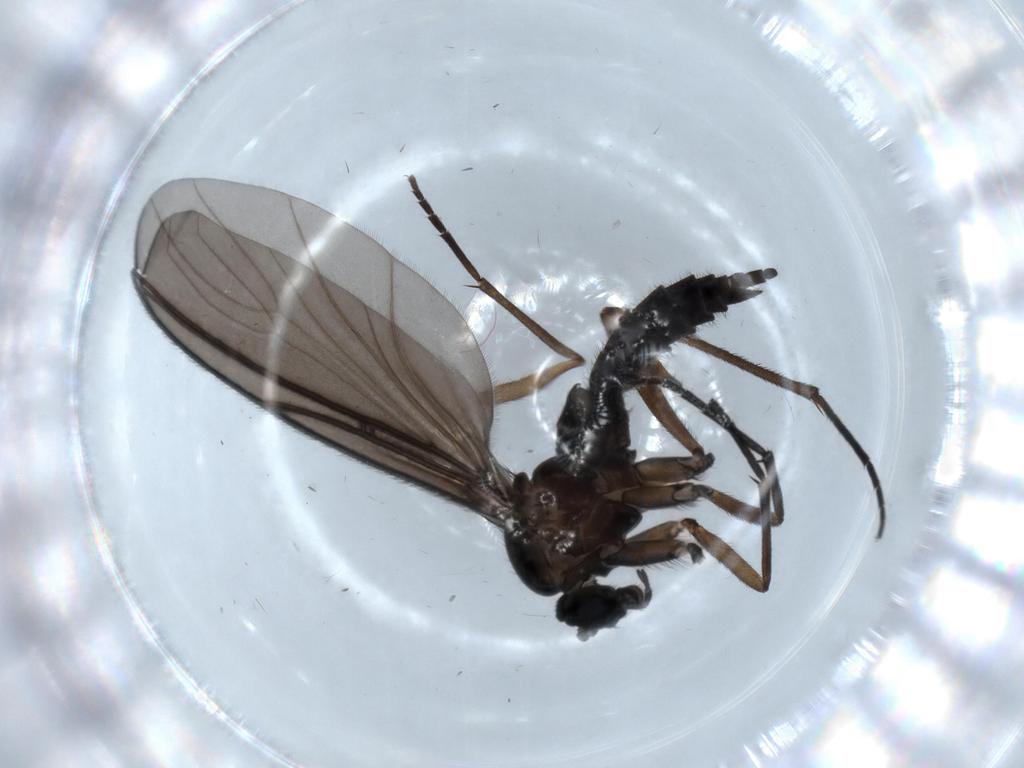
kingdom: Animalia
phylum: Arthropoda
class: Insecta
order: Diptera
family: Sciaridae
